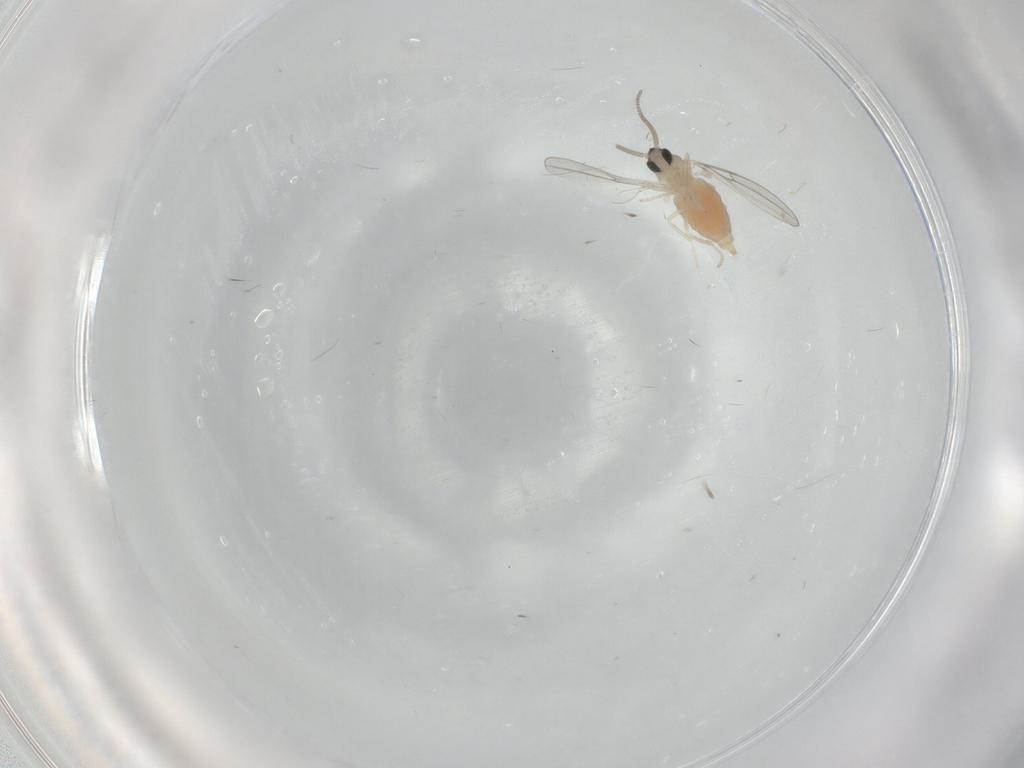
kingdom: Animalia
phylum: Arthropoda
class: Insecta
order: Diptera
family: Cecidomyiidae
